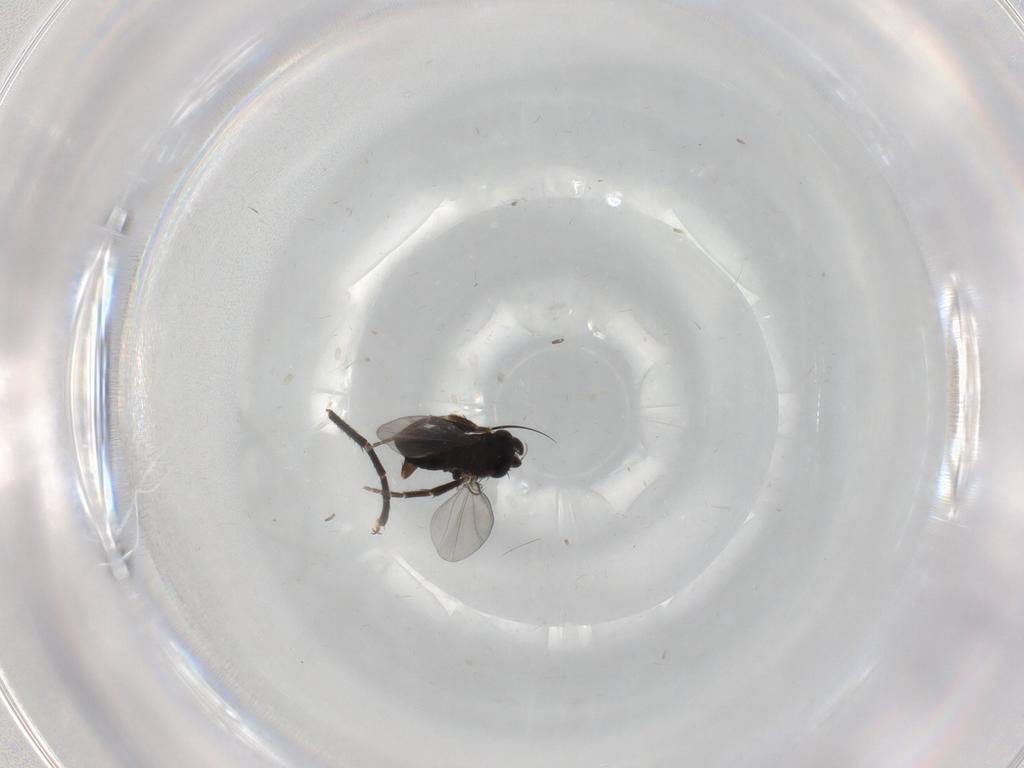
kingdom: Animalia
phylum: Arthropoda
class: Insecta
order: Diptera
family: Phoridae
